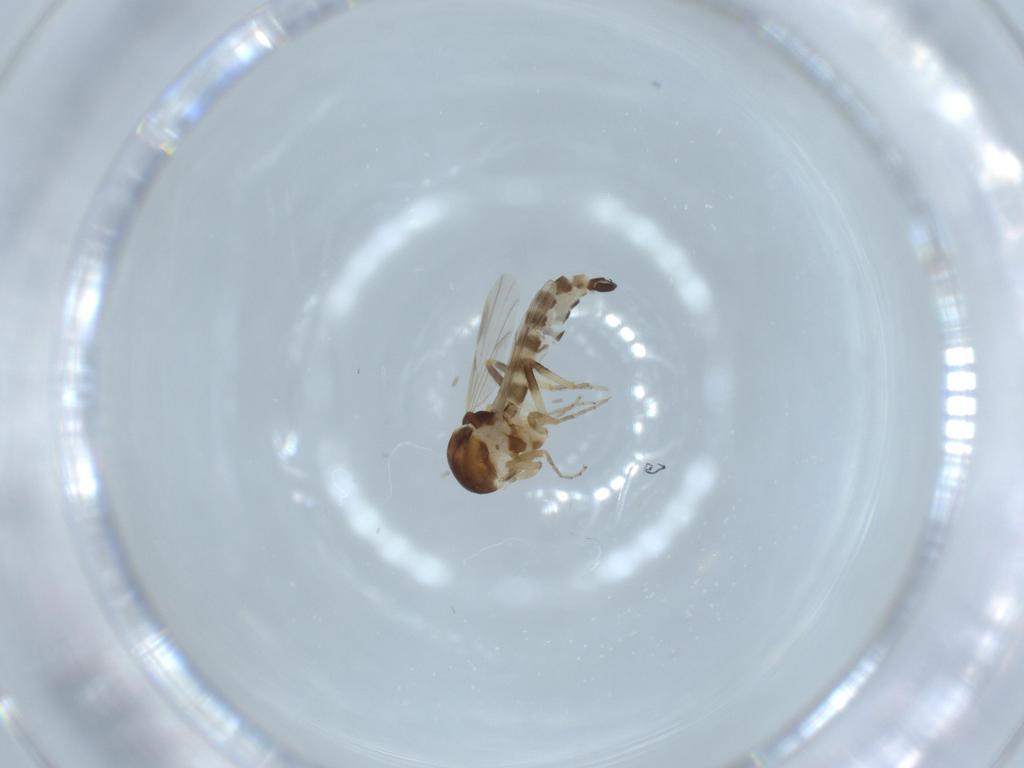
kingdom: Animalia
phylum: Arthropoda
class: Insecta
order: Diptera
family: Ceratopogonidae
